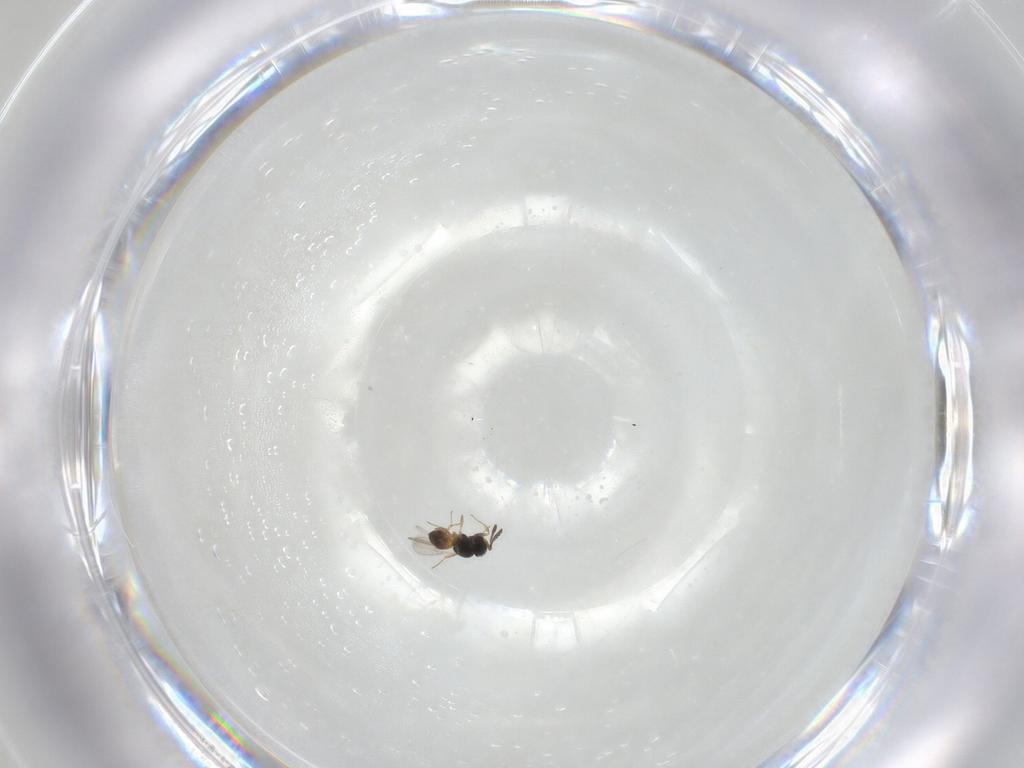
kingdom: Animalia
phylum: Arthropoda
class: Insecta
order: Hymenoptera
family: Scelionidae
